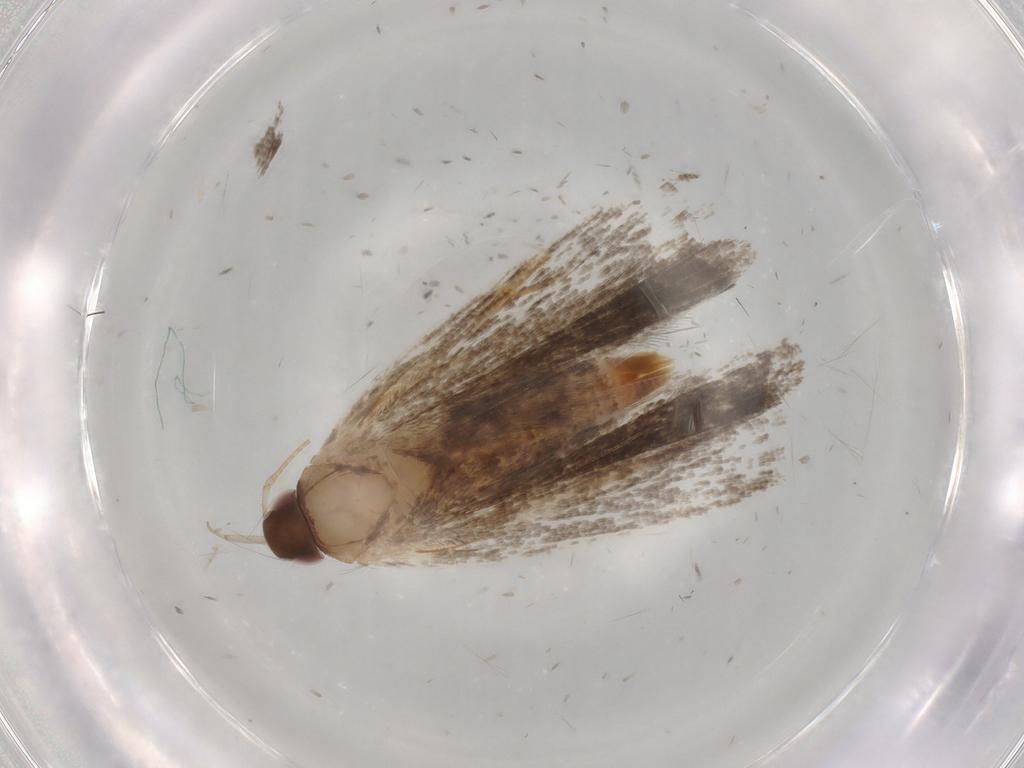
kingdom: Animalia
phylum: Arthropoda
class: Insecta
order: Lepidoptera
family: Gelechiidae
